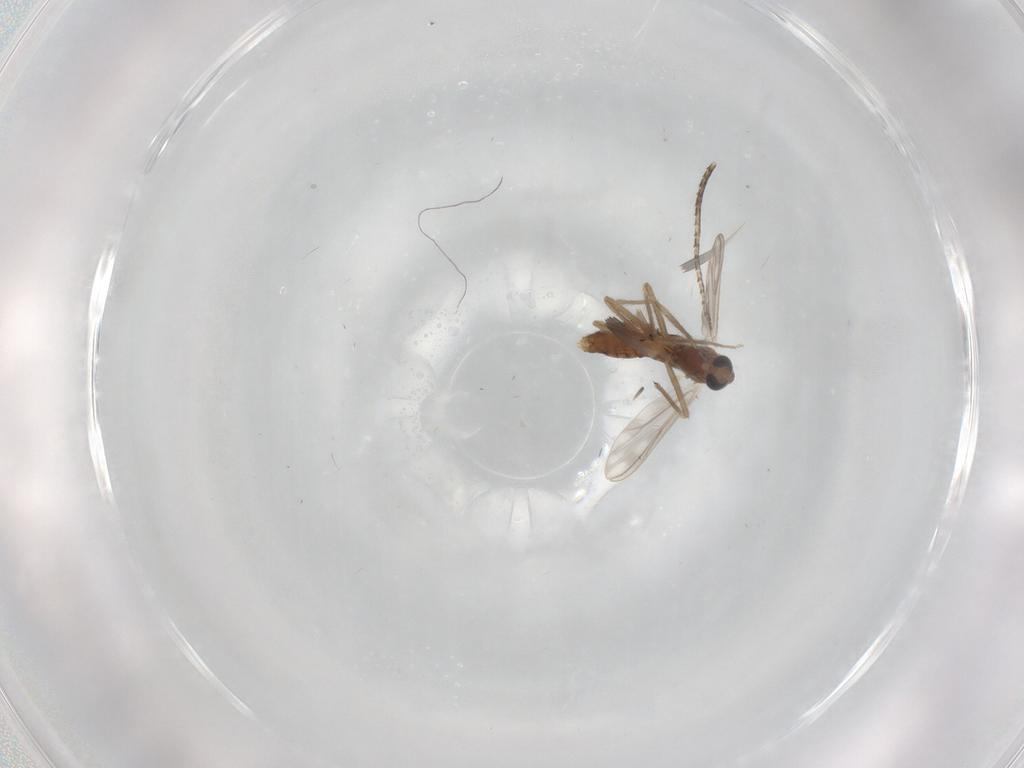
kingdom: Animalia
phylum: Arthropoda
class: Insecta
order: Diptera
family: Chironomidae
